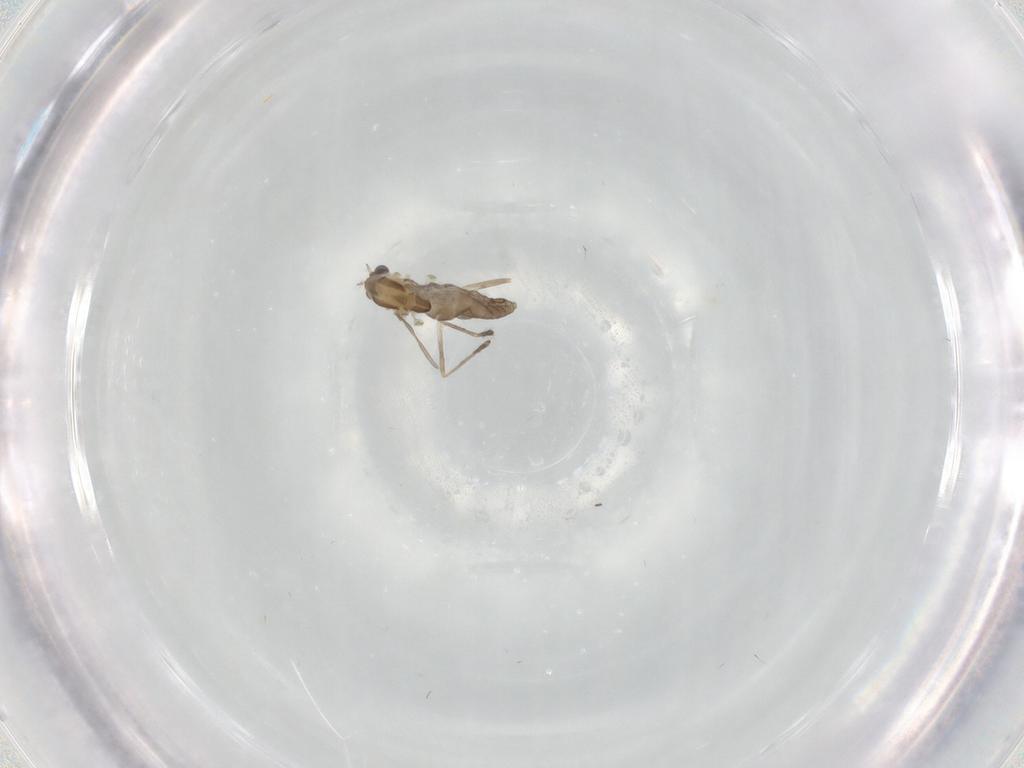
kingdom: Animalia
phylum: Arthropoda
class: Insecta
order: Diptera
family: Chironomidae
